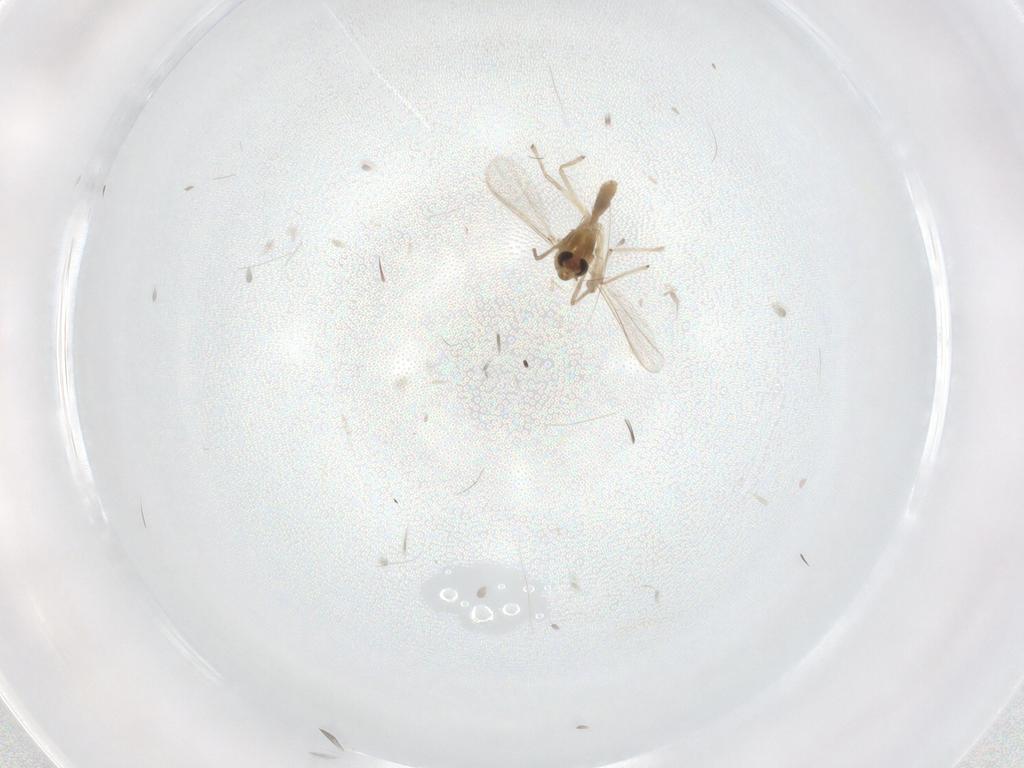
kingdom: Animalia
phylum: Arthropoda
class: Insecta
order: Diptera
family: Chironomidae
